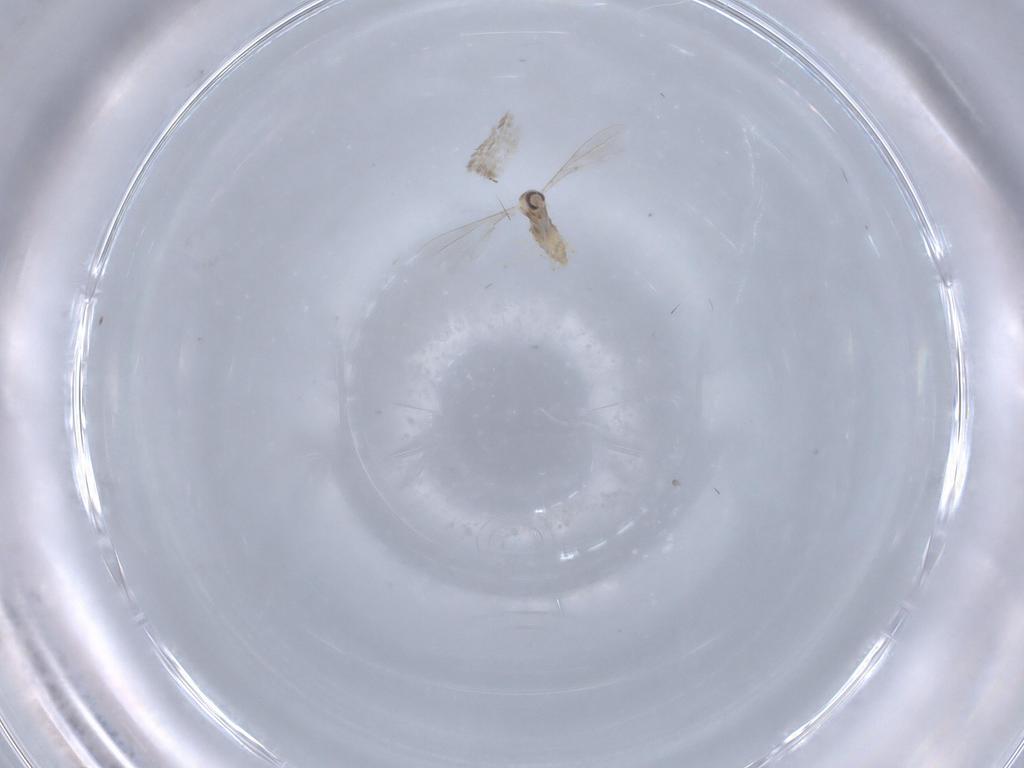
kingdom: Animalia
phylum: Arthropoda
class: Insecta
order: Diptera
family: Cecidomyiidae
